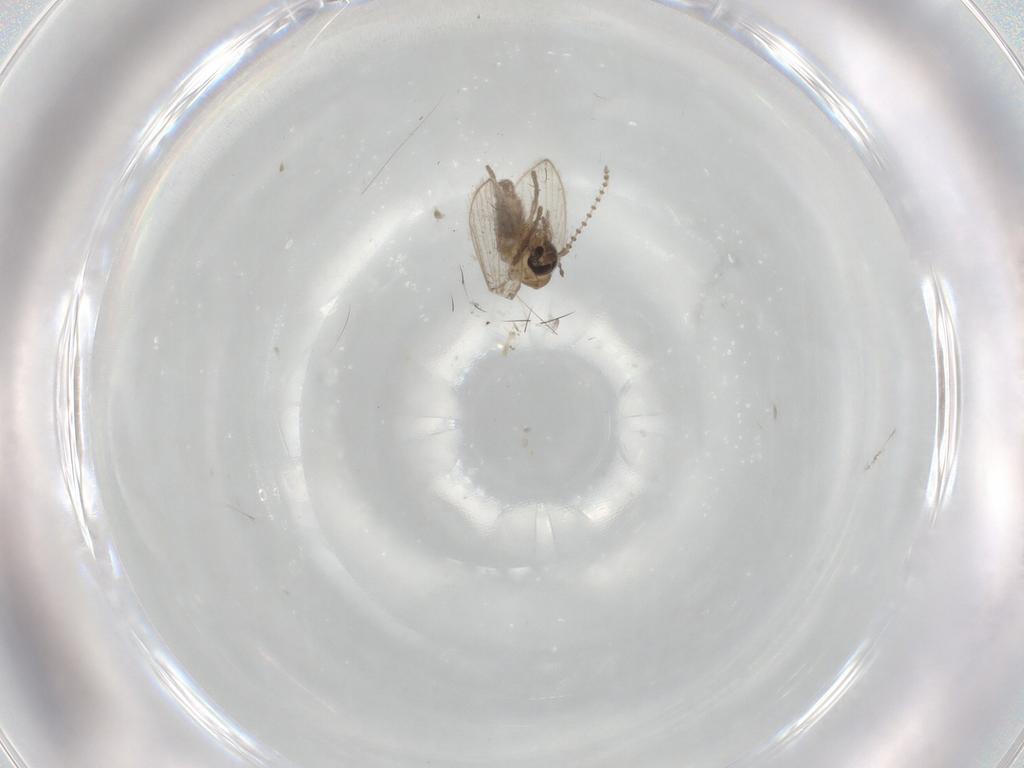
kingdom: Animalia
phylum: Arthropoda
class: Insecta
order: Diptera
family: Psychodidae
